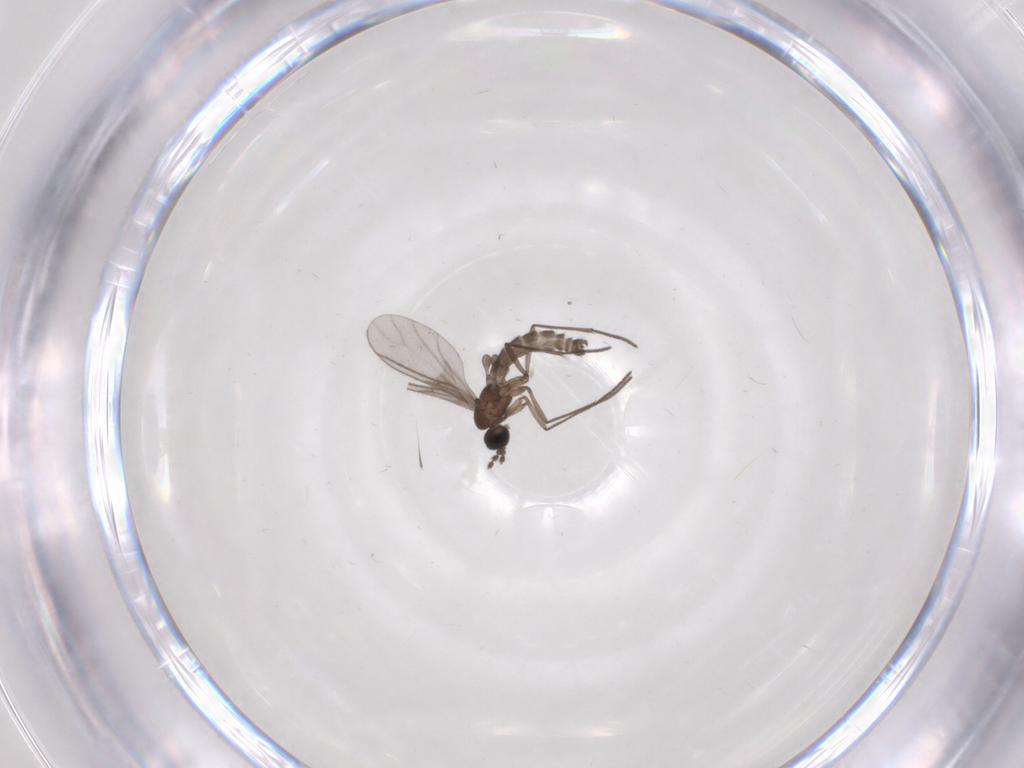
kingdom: Animalia
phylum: Arthropoda
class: Insecta
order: Diptera
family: Sciaridae
